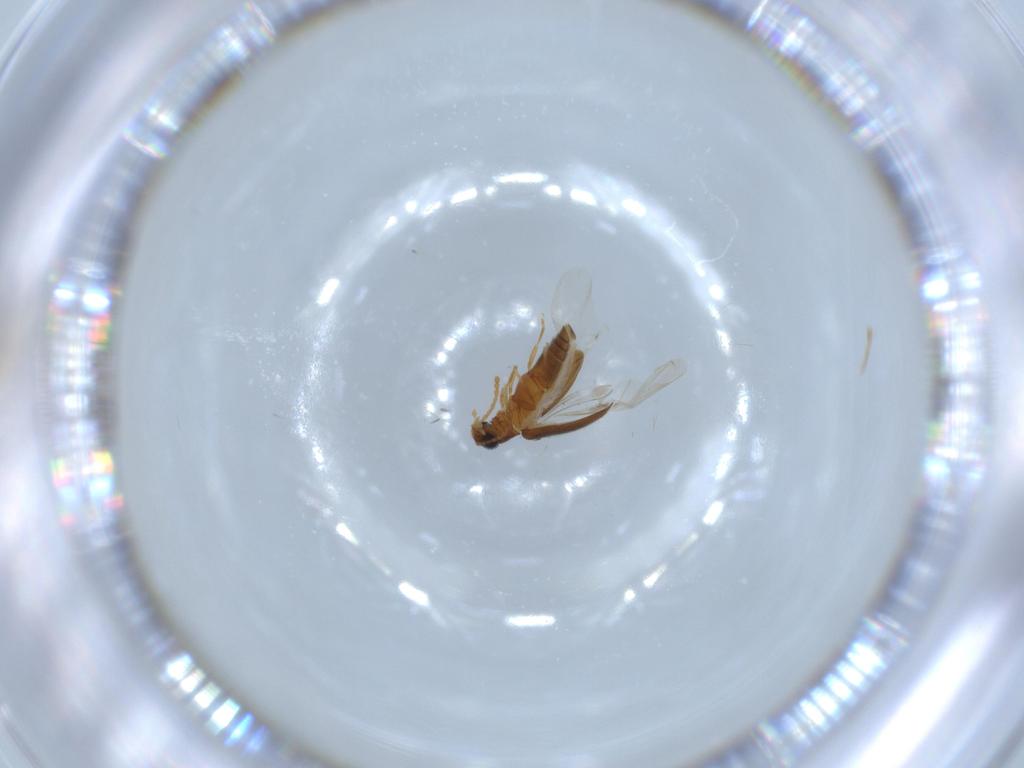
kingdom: Animalia
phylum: Arthropoda
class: Insecta
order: Coleoptera
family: Aderidae
